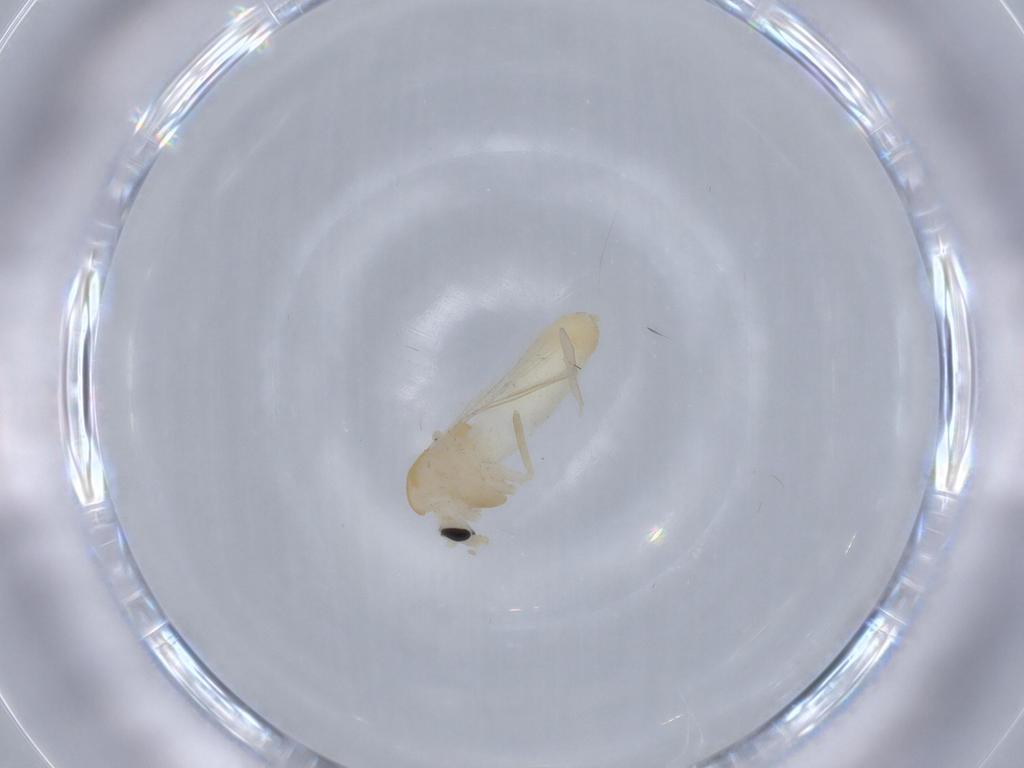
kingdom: Animalia
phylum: Arthropoda
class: Insecta
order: Diptera
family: Chironomidae
